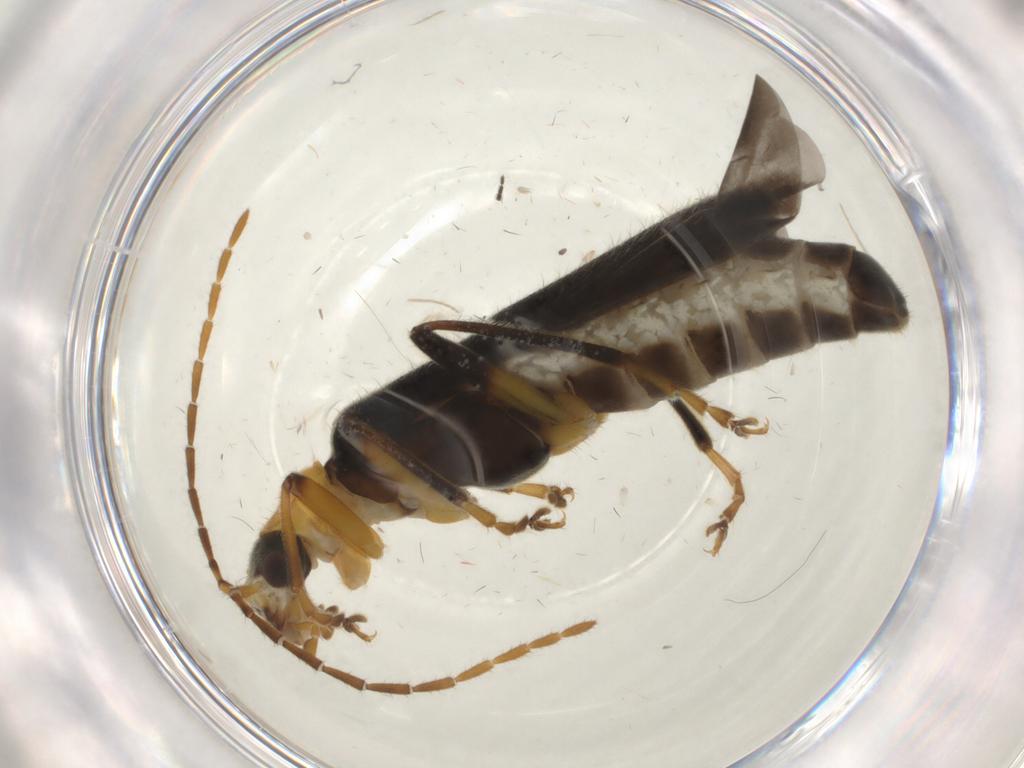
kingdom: Animalia
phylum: Arthropoda
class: Insecta
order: Coleoptera
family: Cantharidae
